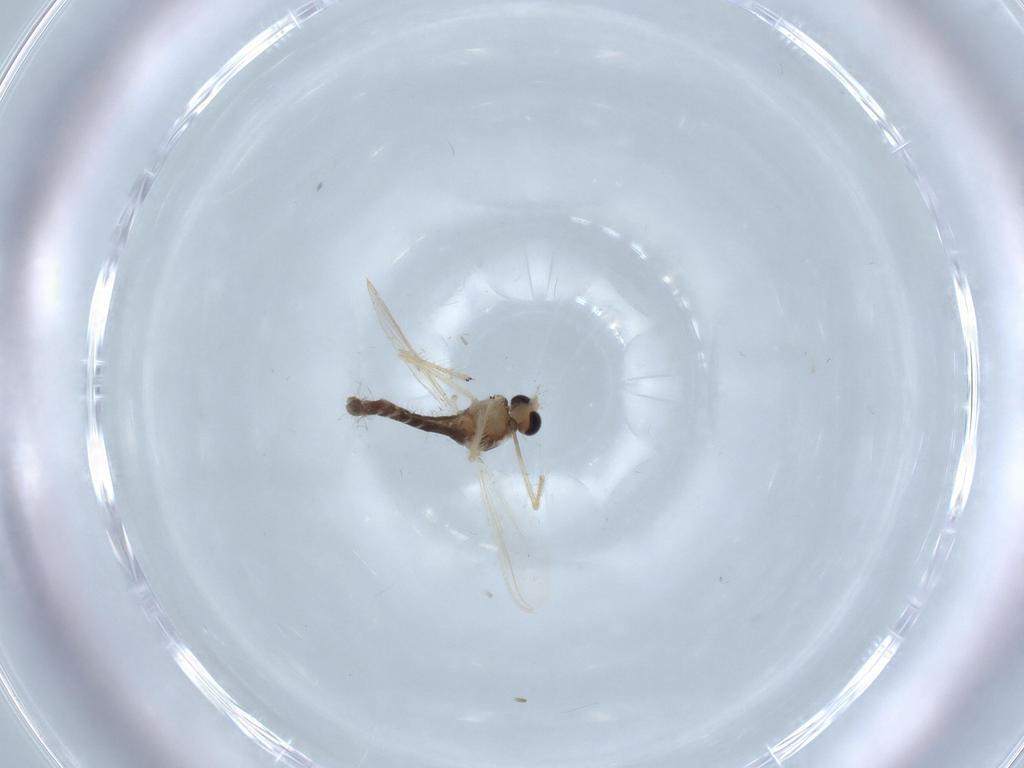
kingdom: Animalia
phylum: Arthropoda
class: Insecta
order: Diptera
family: Chironomidae
